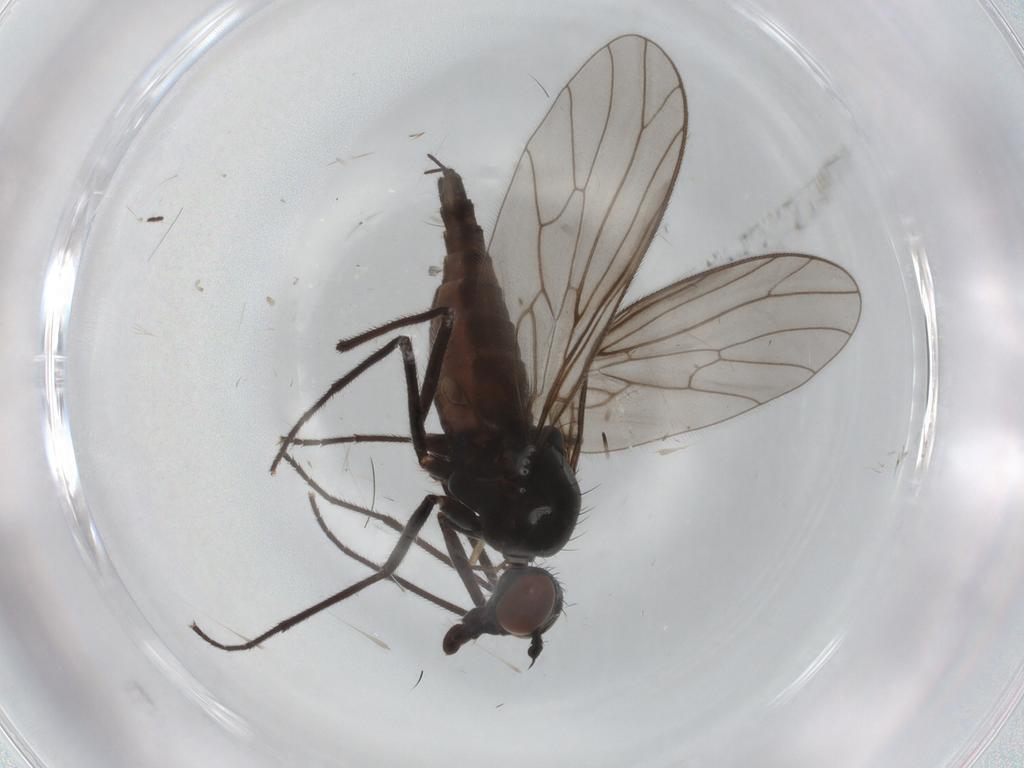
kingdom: Animalia
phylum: Arthropoda
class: Insecta
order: Diptera
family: Empididae
